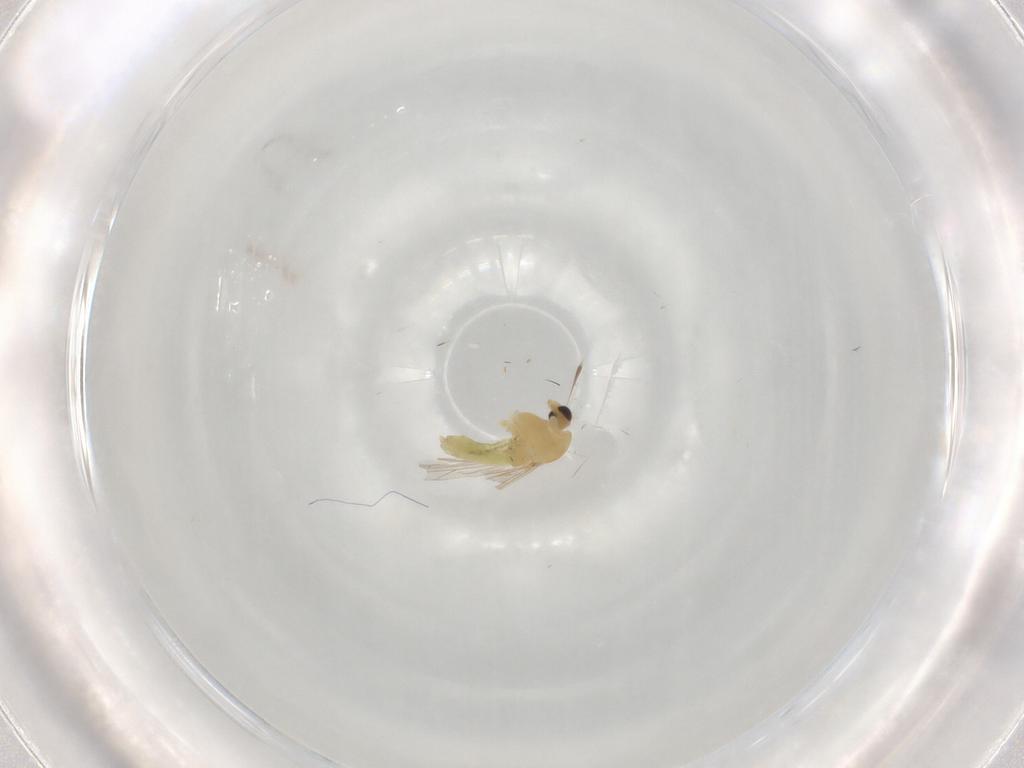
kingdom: Animalia
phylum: Arthropoda
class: Insecta
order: Diptera
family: Chironomidae
